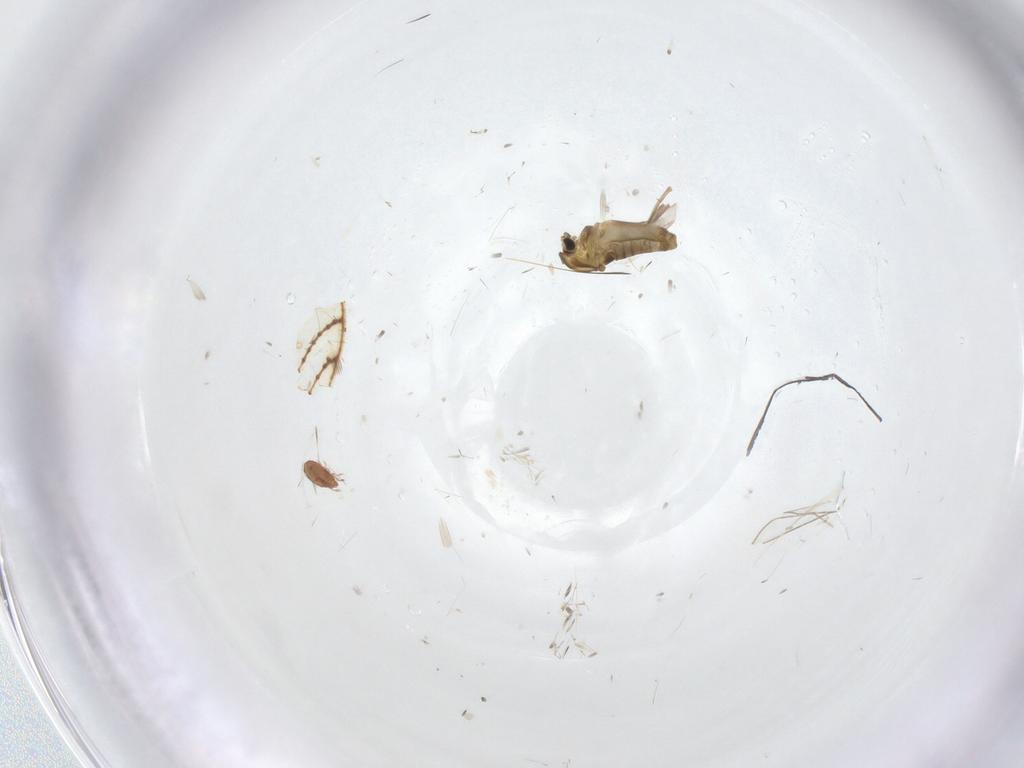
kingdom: Animalia
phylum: Arthropoda
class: Insecta
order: Diptera
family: Chironomidae
